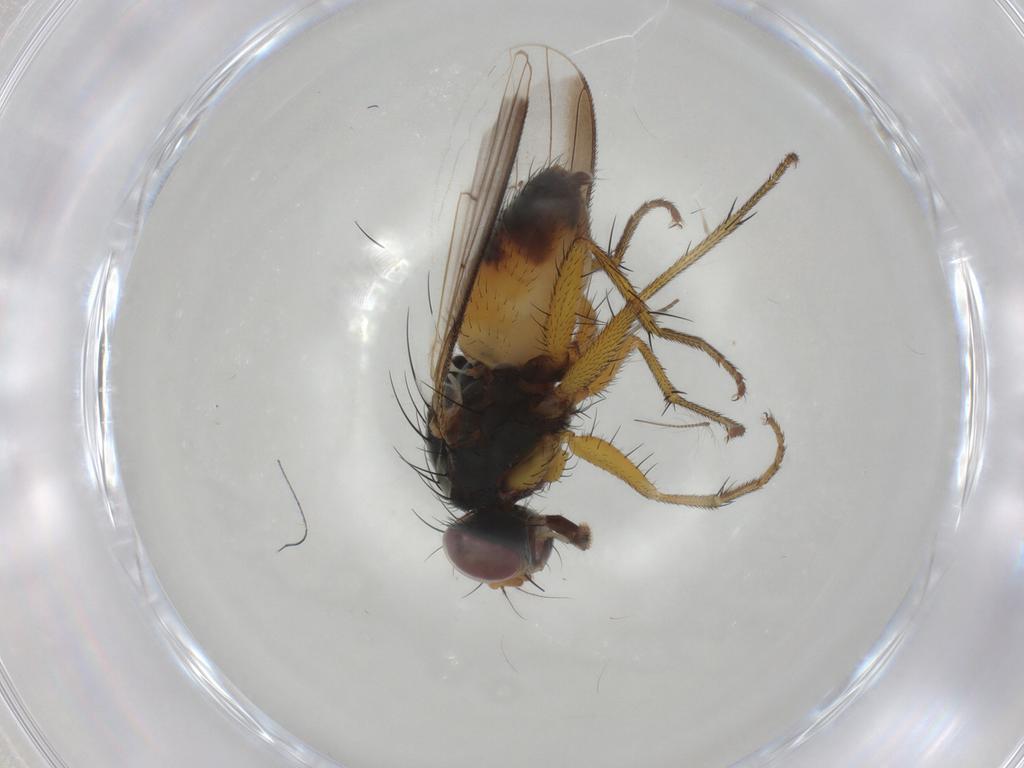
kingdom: Animalia
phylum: Arthropoda
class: Insecta
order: Diptera
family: Muscidae
